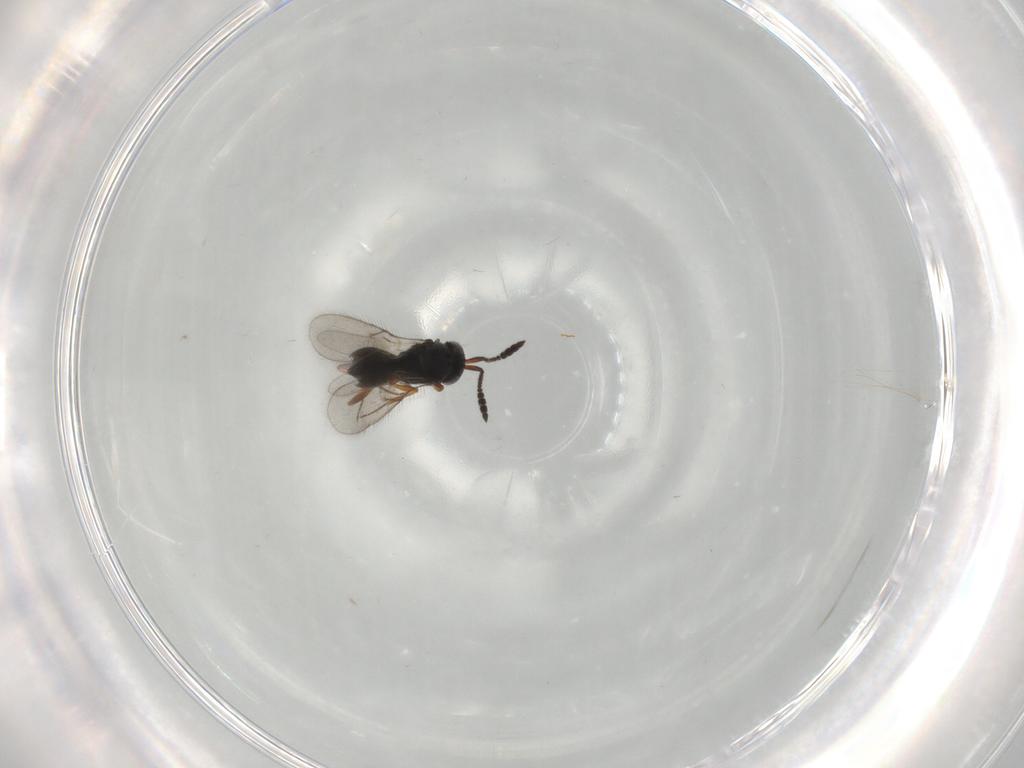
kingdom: Animalia
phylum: Arthropoda
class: Insecta
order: Hymenoptera
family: Scelionidae
